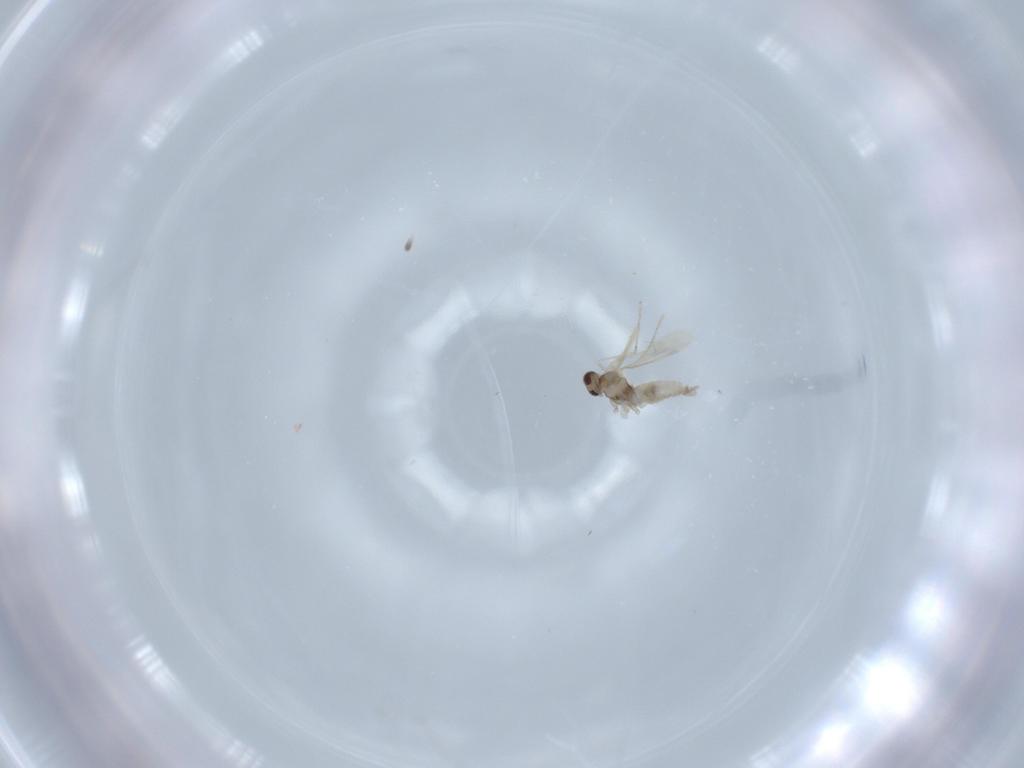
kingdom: Animalia
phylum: Arthropoda
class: Insecta
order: Diptera
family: Cecidomyiidae
